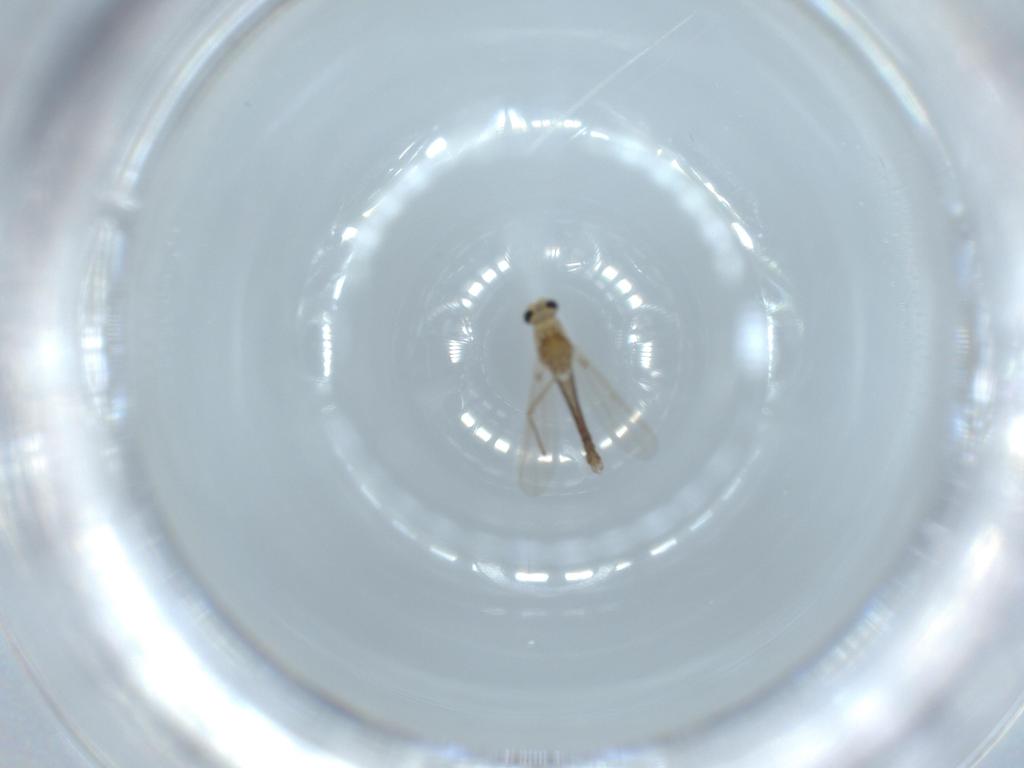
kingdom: Animalia
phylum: Arthropoda
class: Insecta
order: Diptera
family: Chironomidae
